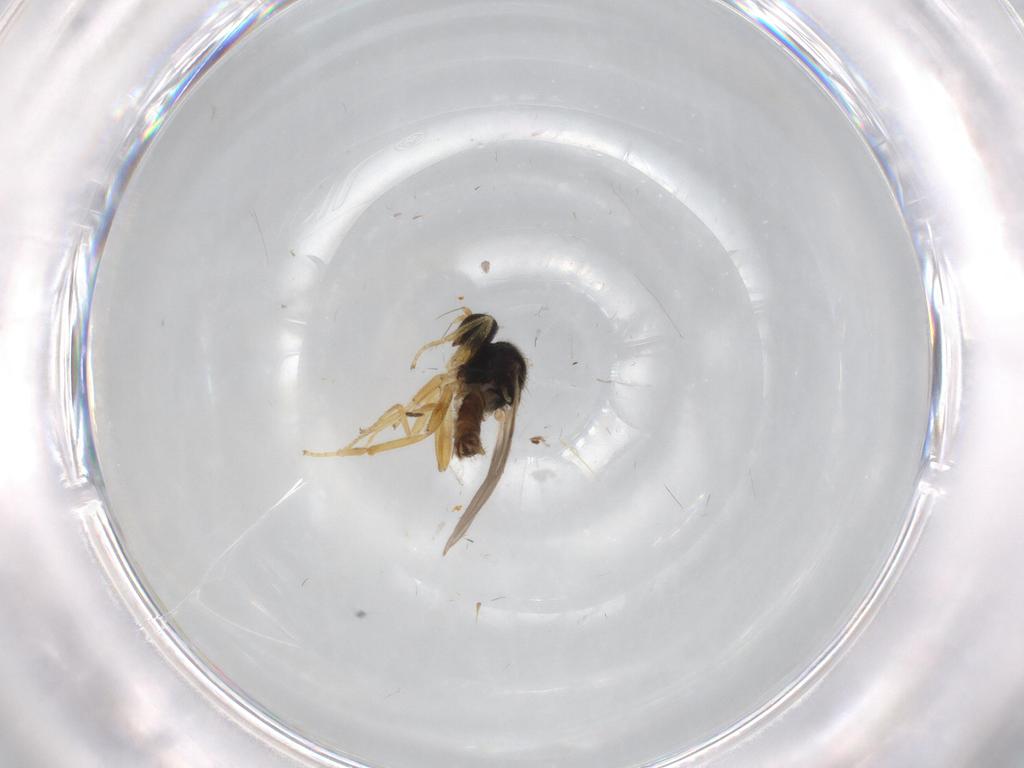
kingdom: Animalia
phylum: Arthropoda
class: Insecta
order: Diptera
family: Hybotidae
